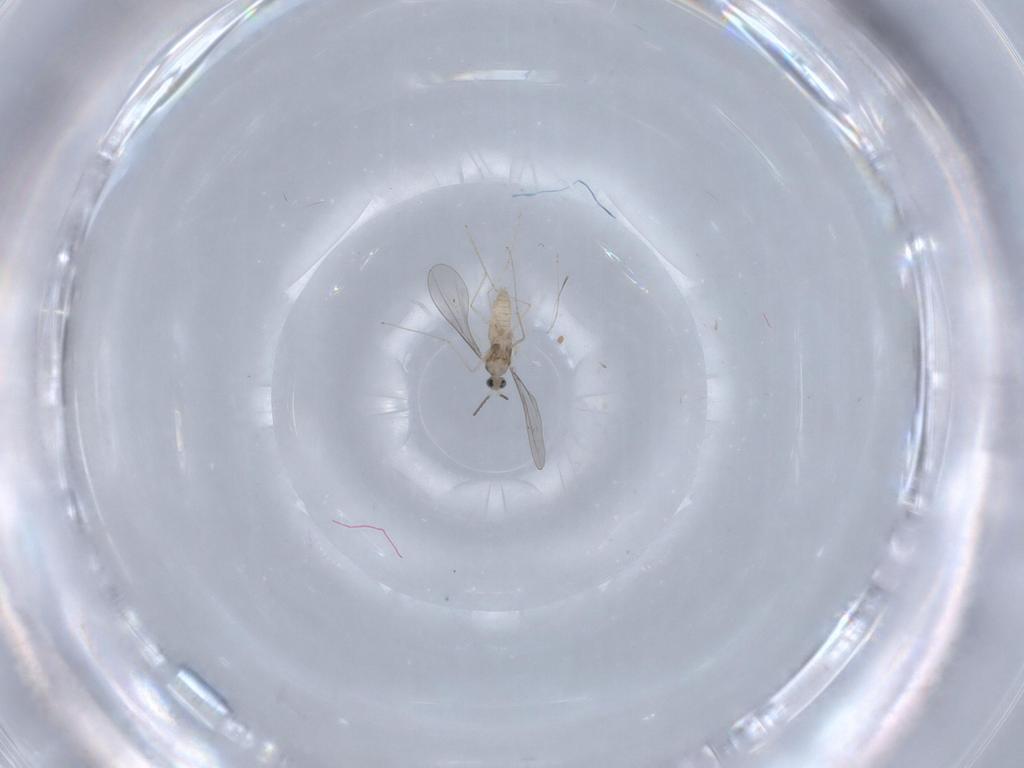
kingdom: Animalia
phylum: Arthropoda
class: Insecta
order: Diptera
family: Cecidomyiidae
